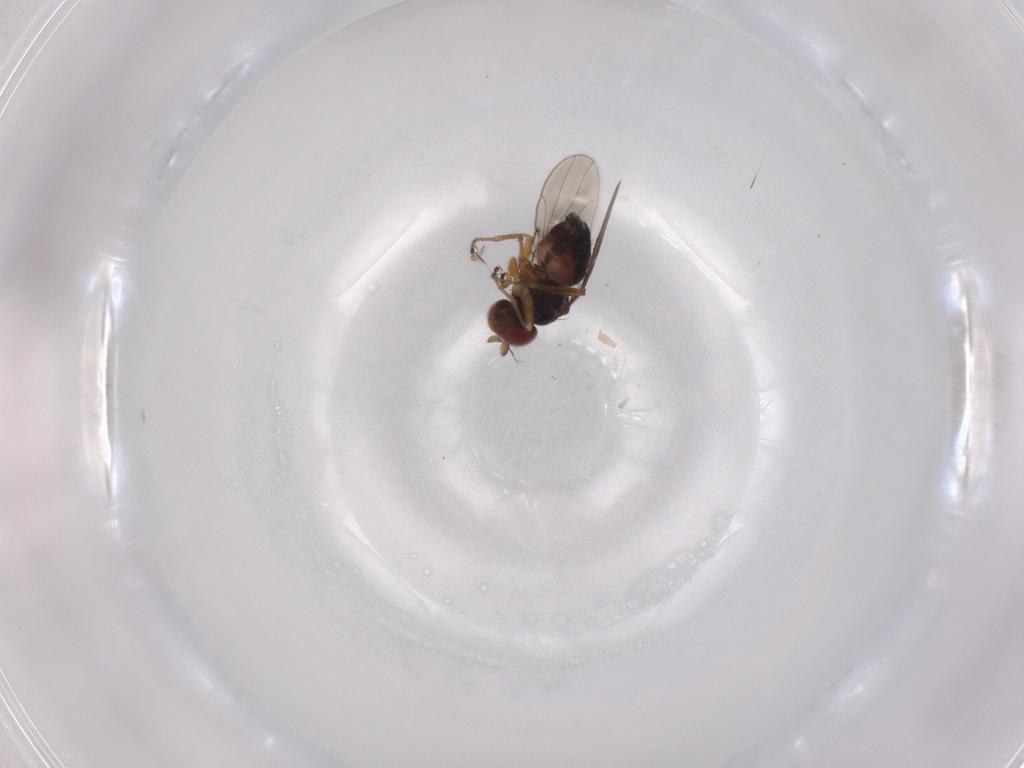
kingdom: Animalia
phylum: Arthropoda
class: Insecta
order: Diptera
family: Ephydridae
